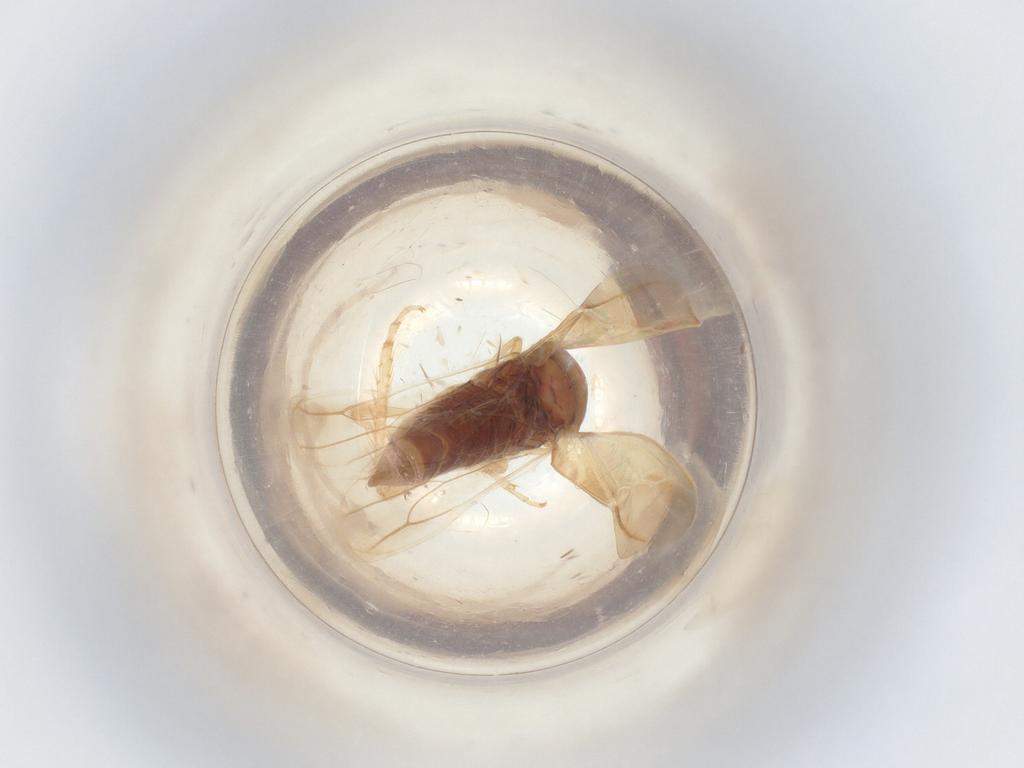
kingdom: Animalia
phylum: Arthropoda
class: Insecta
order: Hemiptera
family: Cicadellidae
